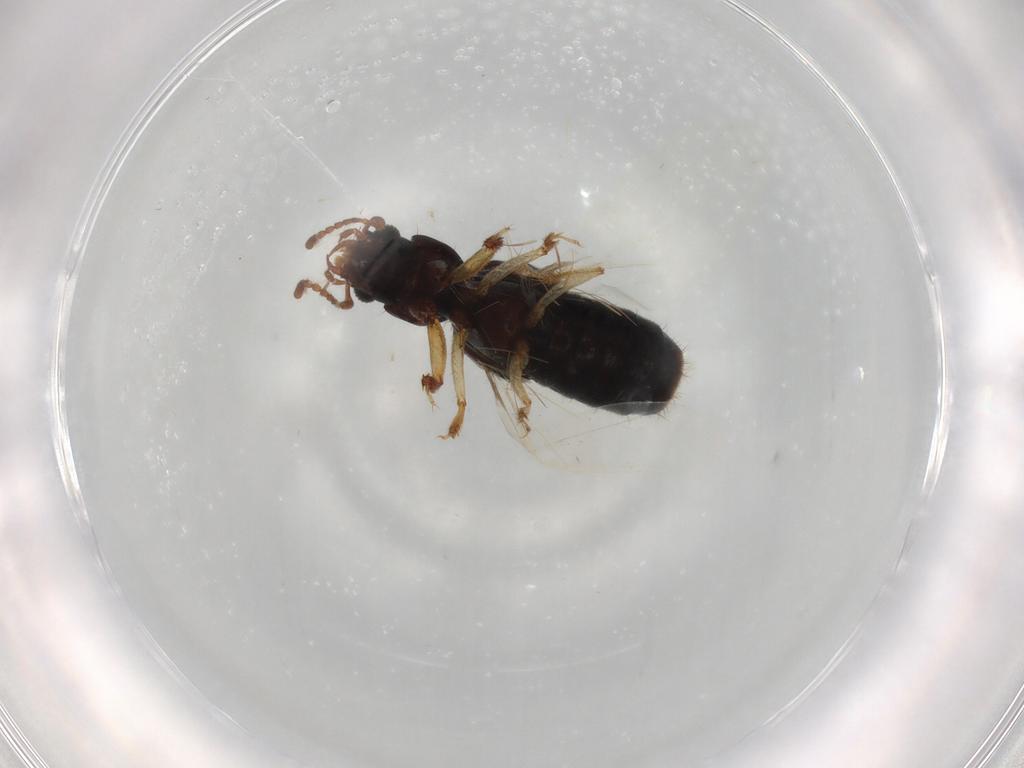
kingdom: Animalia
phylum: Arthropoda
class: Insecta
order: Coleoptera
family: Staphylinidae
